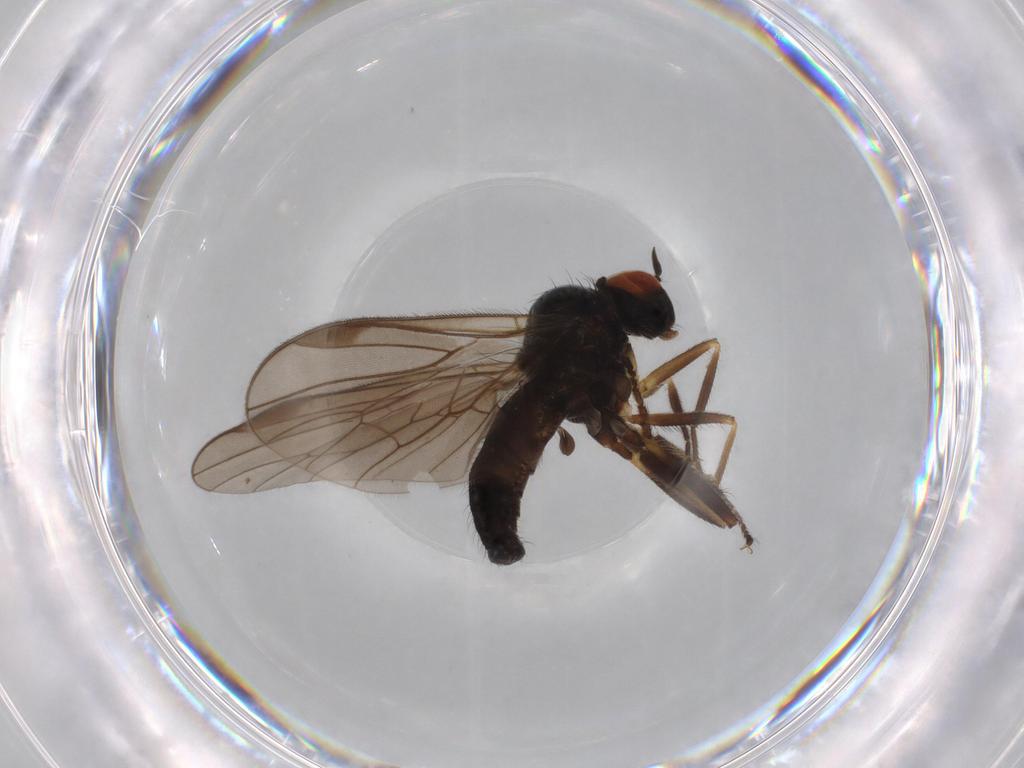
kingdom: Animalia
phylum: Arthropoda
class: Insecta
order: Diptera
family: Hybotidae
